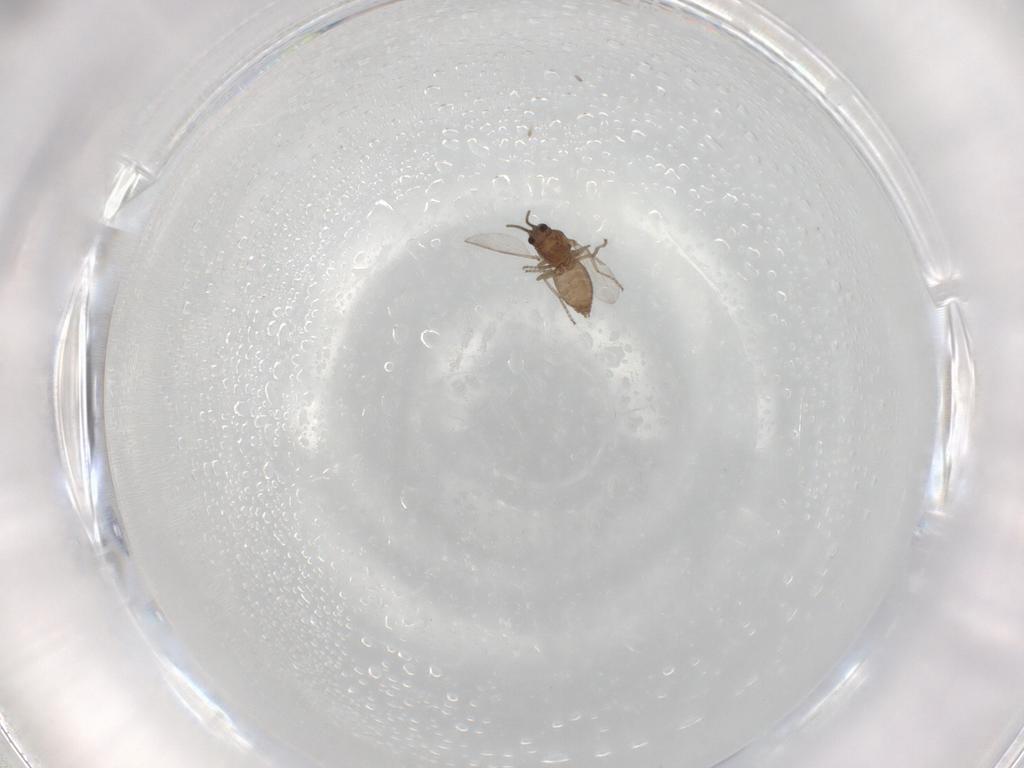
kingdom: Animalia
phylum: Arthropoda
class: Insecta
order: Diptera
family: Ceratopogonidae
